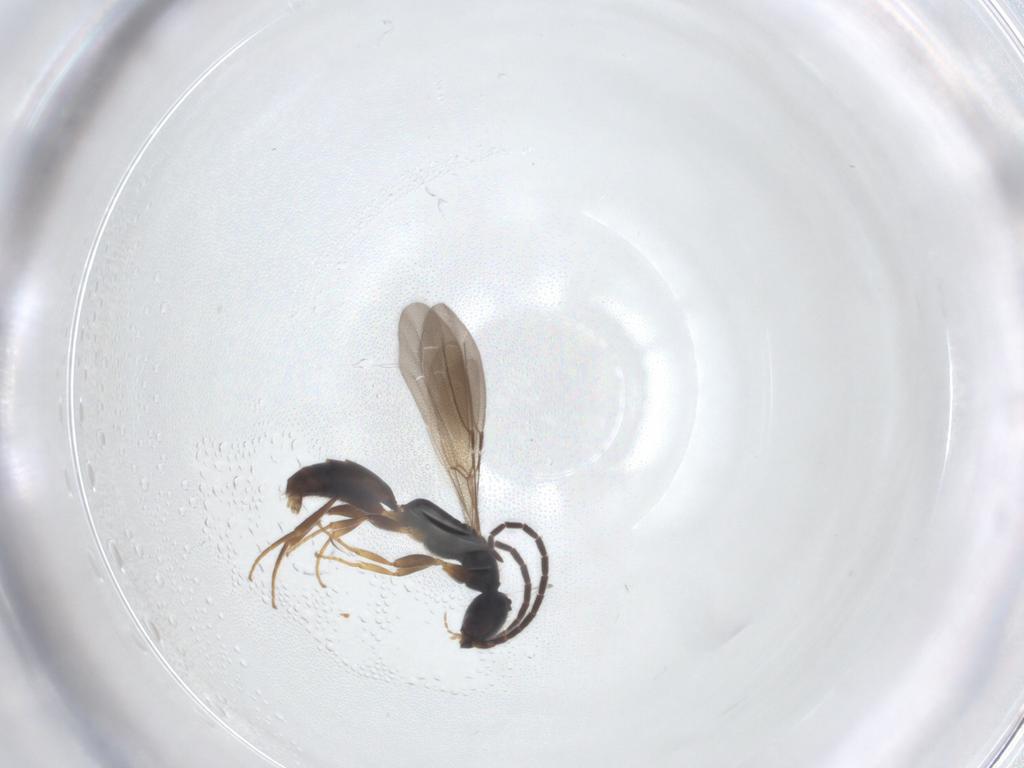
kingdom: Animalia
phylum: Arthropoda
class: Insecta
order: Hymenoptera
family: Bethylidae
